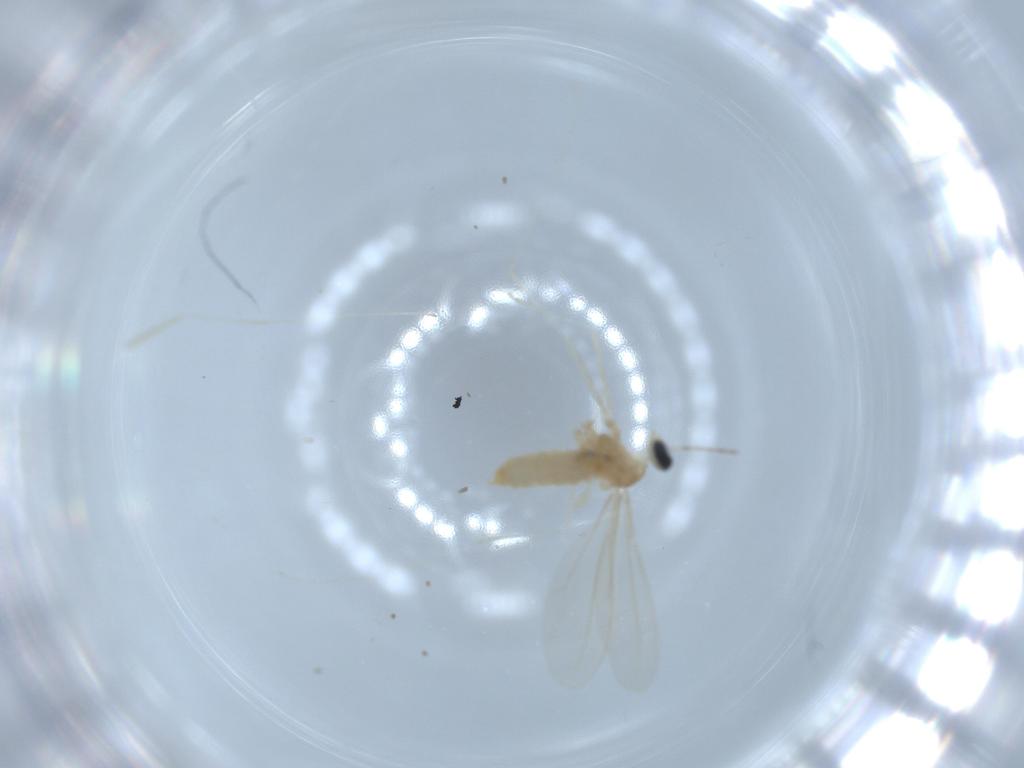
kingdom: Animalia
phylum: Arthropoda
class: Insecta
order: Diptera
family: Cecidomyiidae
